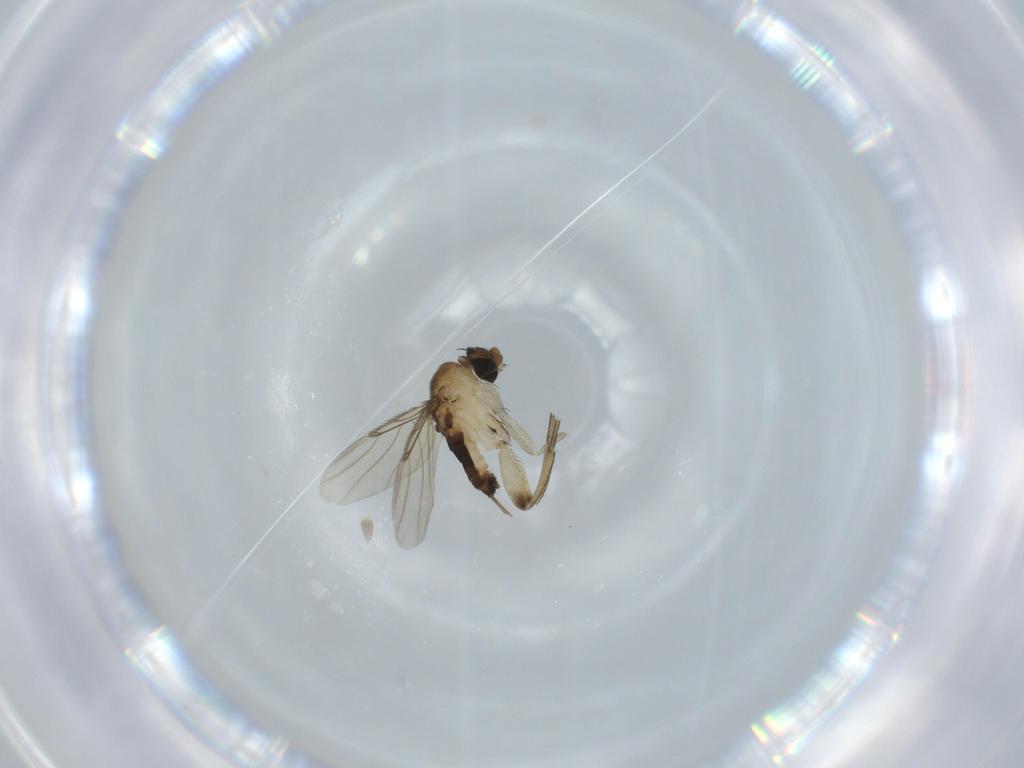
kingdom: Animalia
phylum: Arthropoda
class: Insecta
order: Diptera
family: Phoridae
